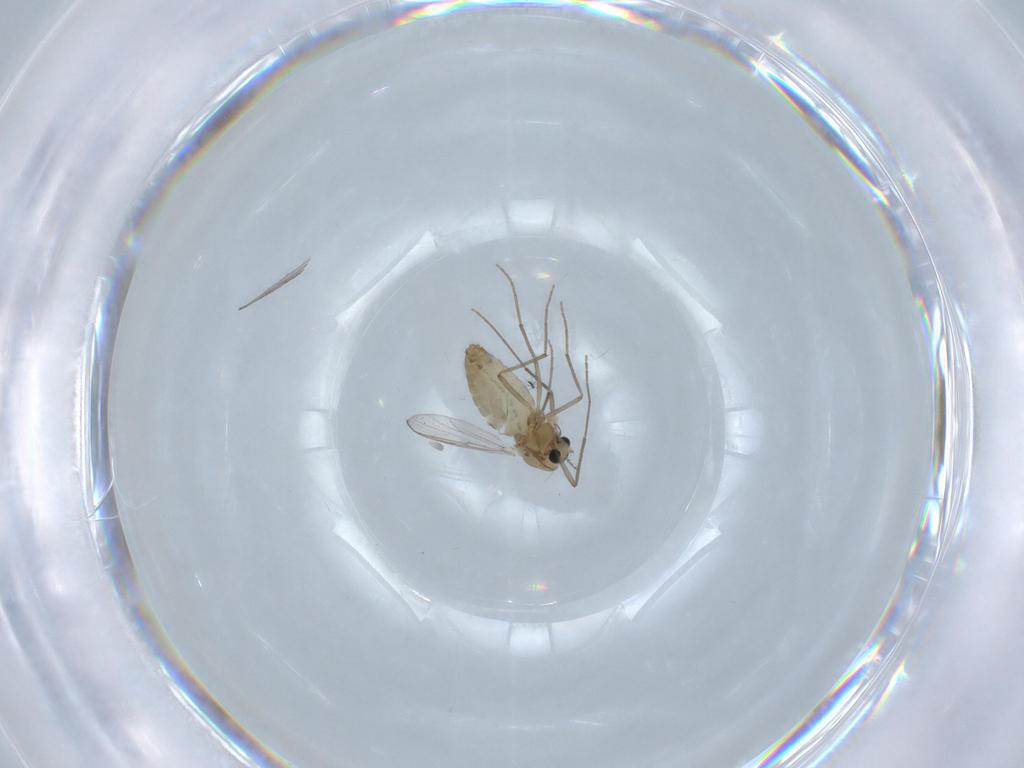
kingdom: Animalia
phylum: Arthropoda
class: Insecta
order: Diptera
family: Chironomidae
